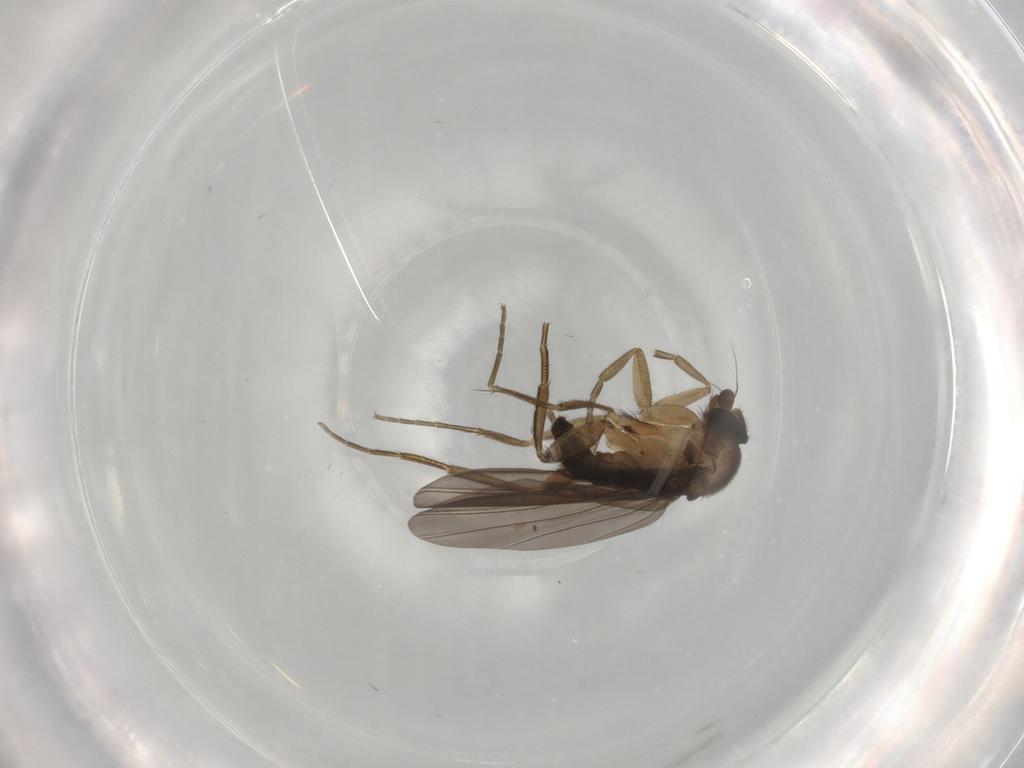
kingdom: Animalia
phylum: Arthropoda
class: Insecta
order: Diptera
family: Phoridae
